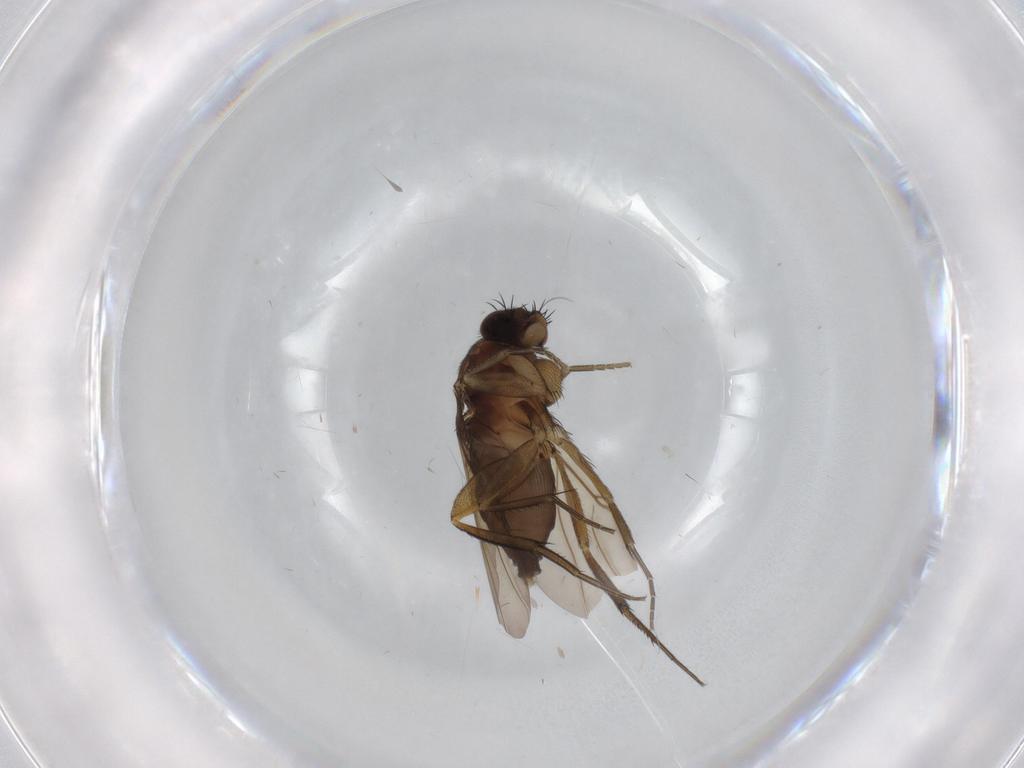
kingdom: Animalia
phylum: Arthropoda
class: Insecta
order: Diptera
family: Phoridae
